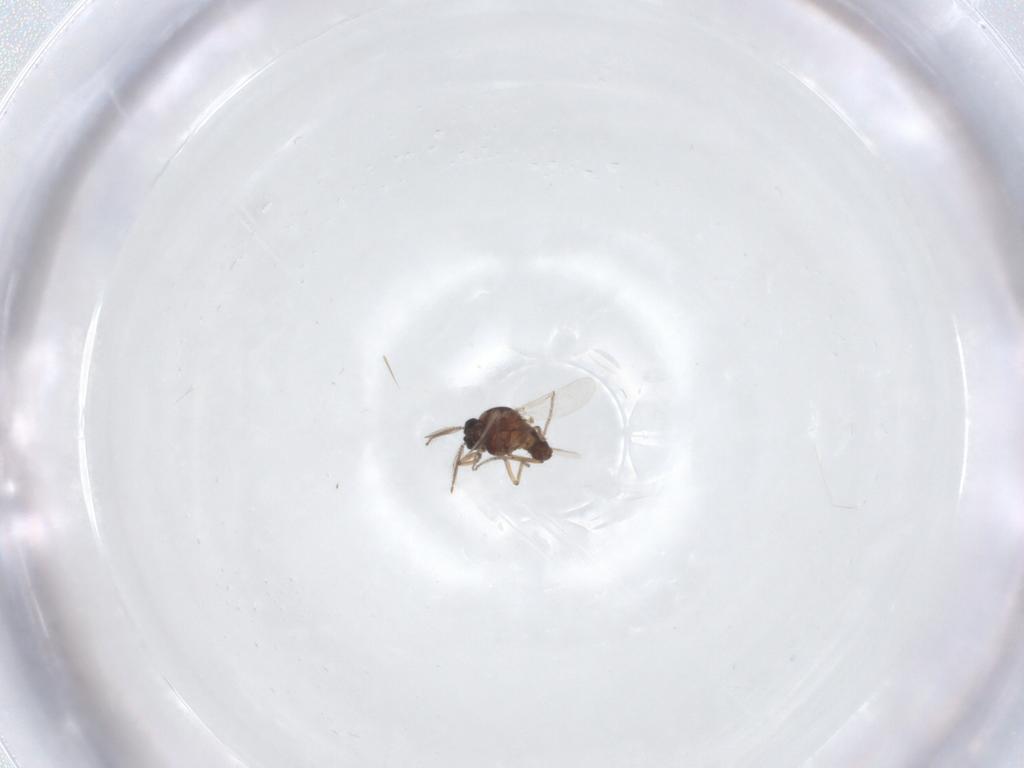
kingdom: Animalia
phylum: Arthropoda
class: Insecta
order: Diptera
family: Ceratopogonidae
